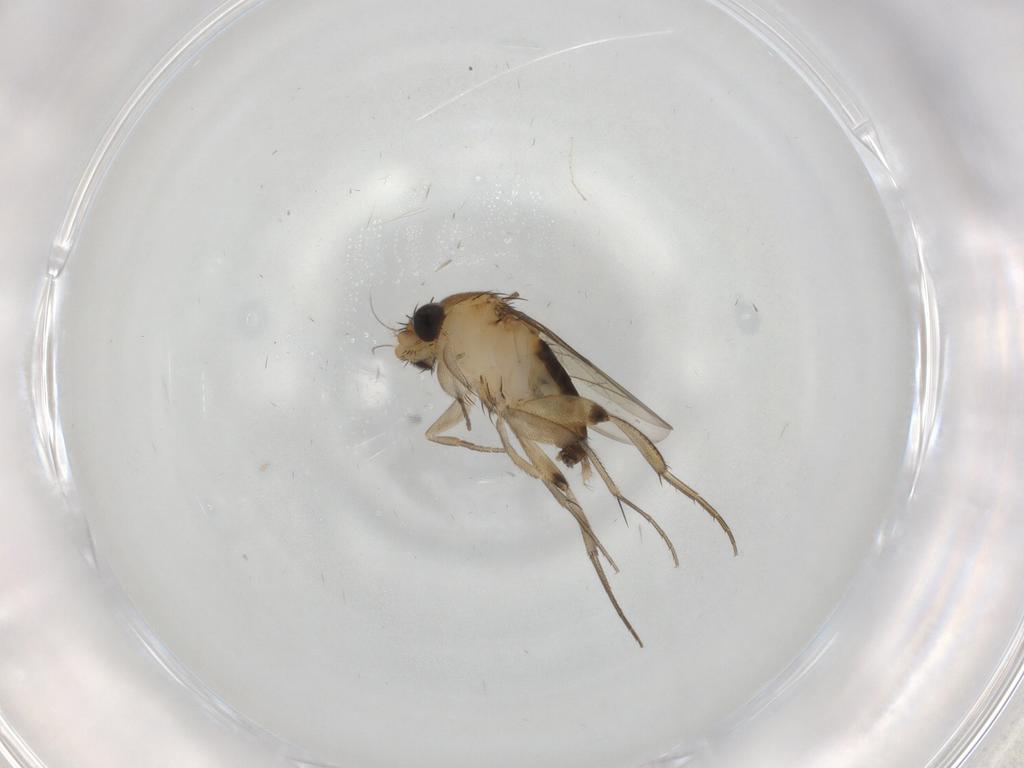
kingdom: Animalia
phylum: Arthropoda
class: Insecta
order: Diptera
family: Phoridae
